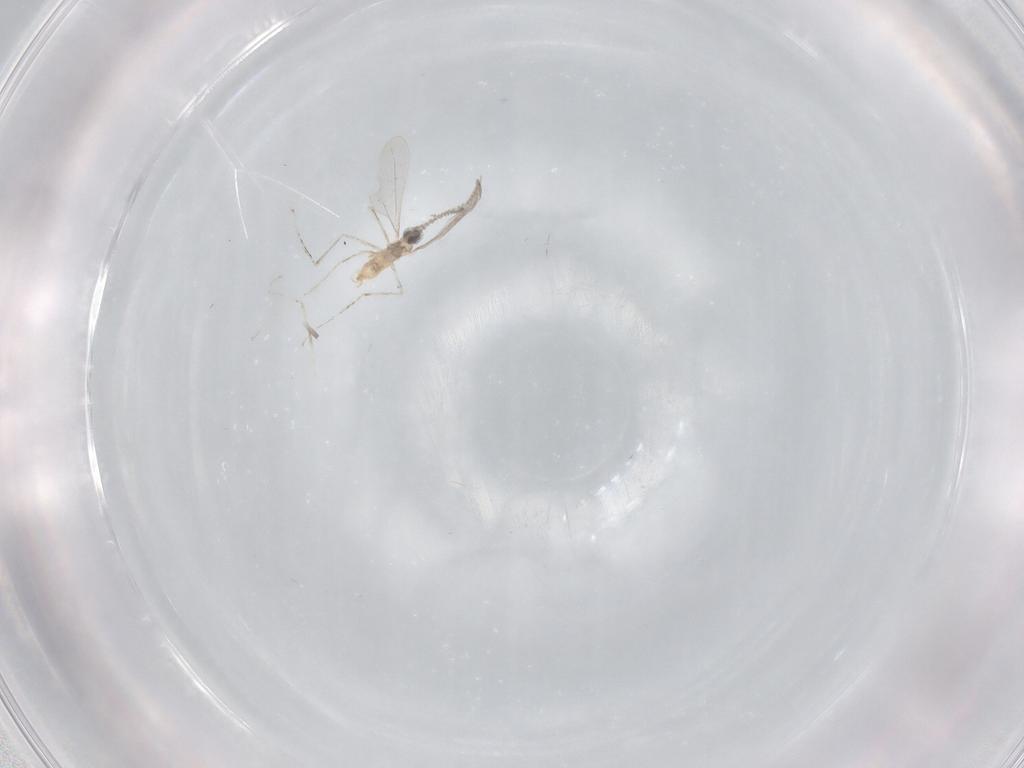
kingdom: Animalia
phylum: Arthropoda
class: Insecta
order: Diptera
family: Cecidomyiidae
